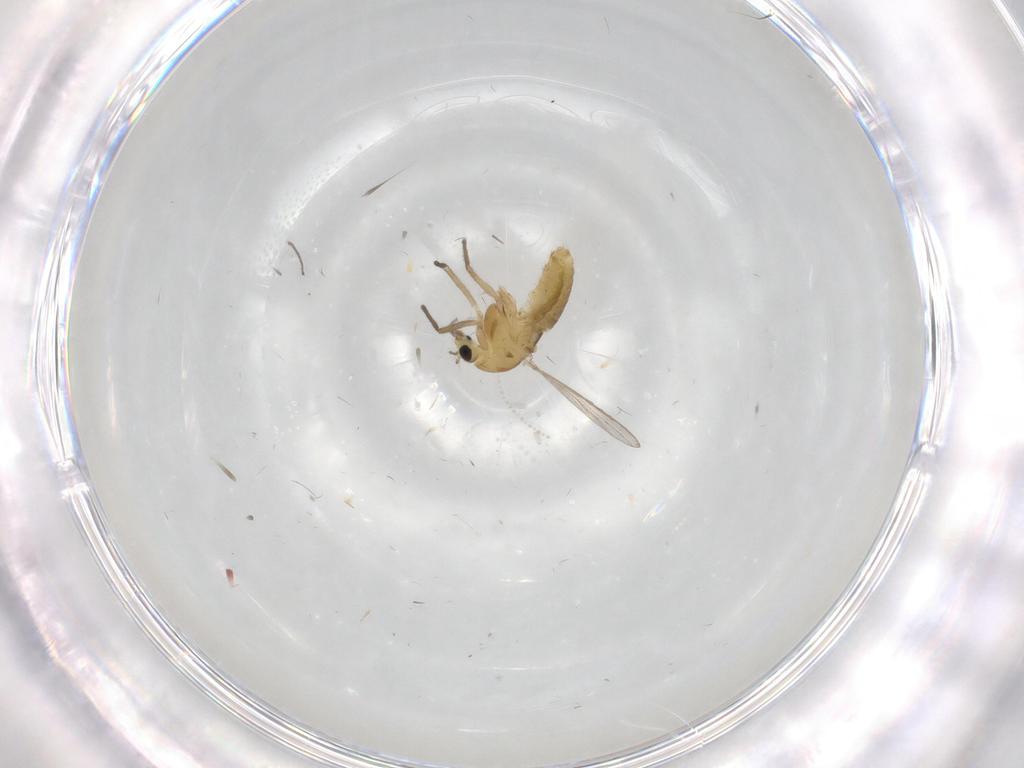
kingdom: Animalia
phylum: Arthropoda
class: Insecta
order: Diptera
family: Chironomidae
